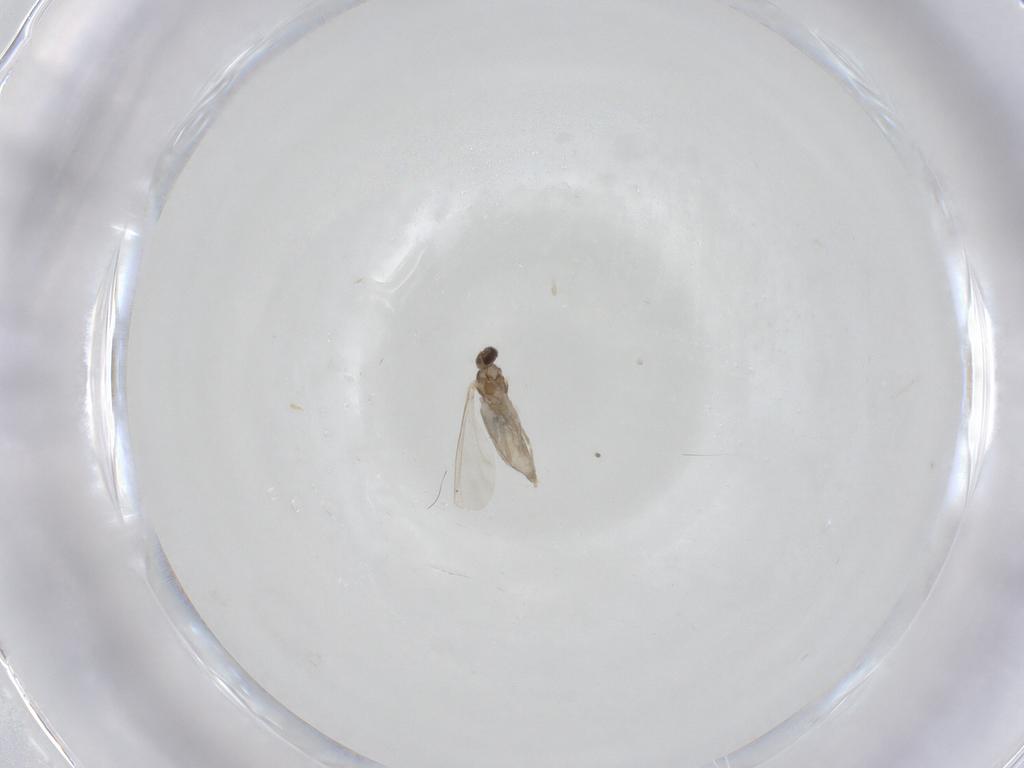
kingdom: Animalia
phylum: Arthropoda
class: Insecta
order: Diptera
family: Cecidomyiidae
